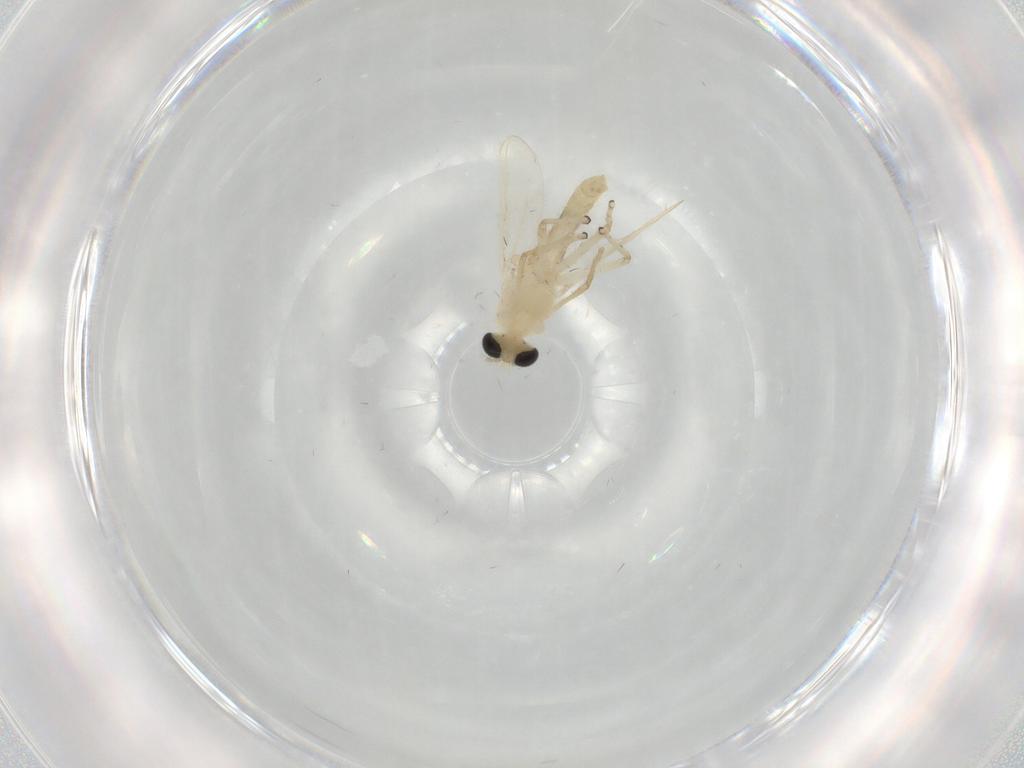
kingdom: Animalia
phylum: Arthropoda
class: Insecta
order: Diptera
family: Chironomidae
